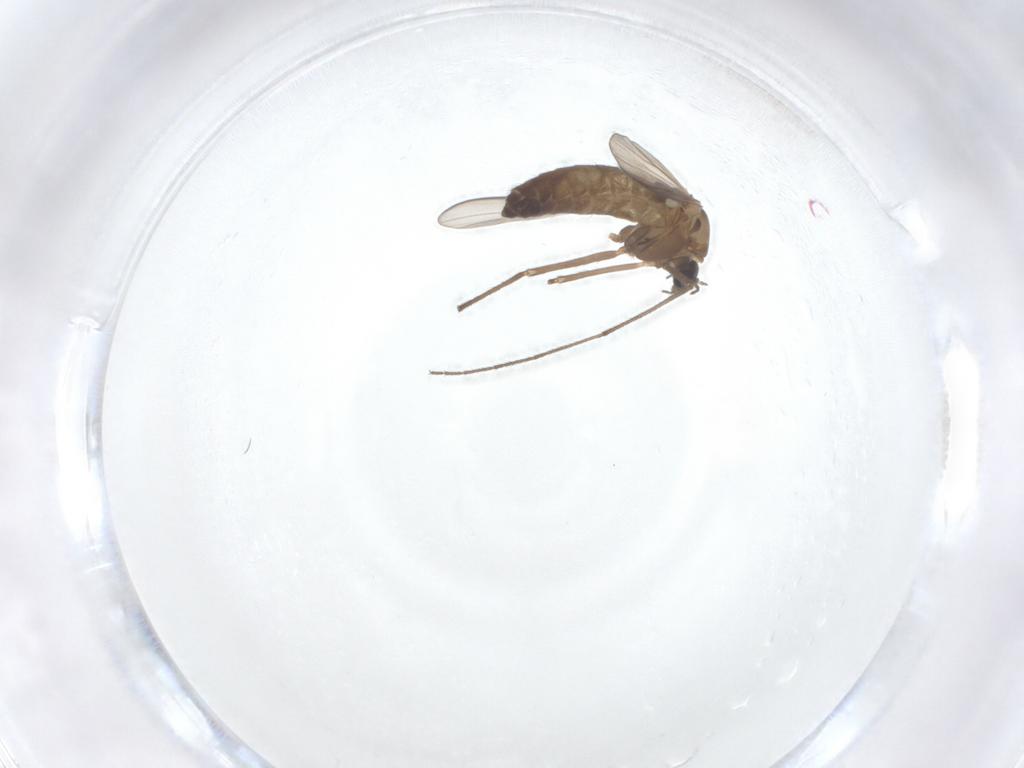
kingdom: Animalia
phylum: Arthropoda
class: Insecta
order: Diptera
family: Chironomidae
